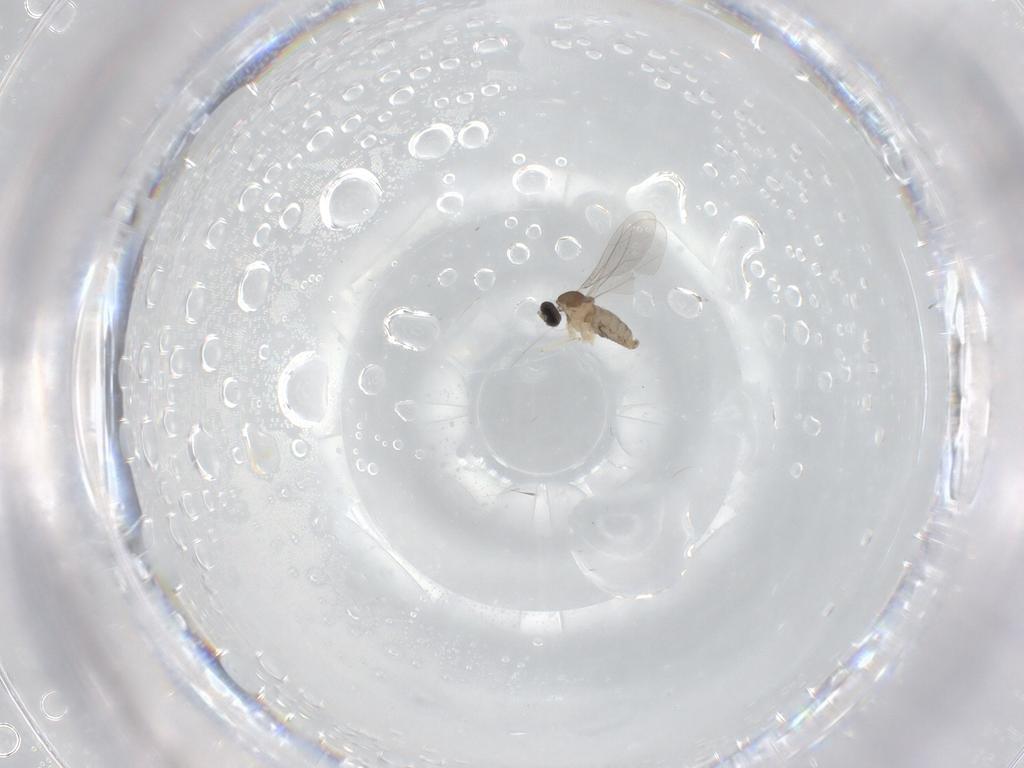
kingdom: Animalia
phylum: Arthropoda
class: Insecta
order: Diptera
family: Cecidomyiidae
